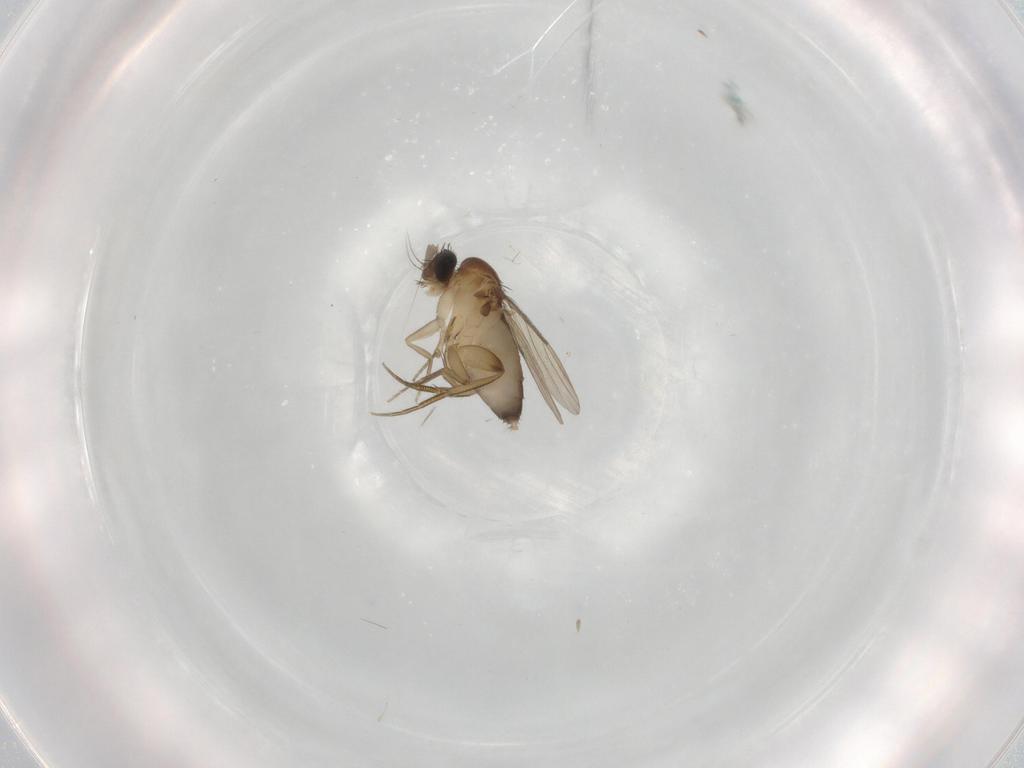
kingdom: Animalia
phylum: Arthropoda
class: Insecta
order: Diptera
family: Phoridae
